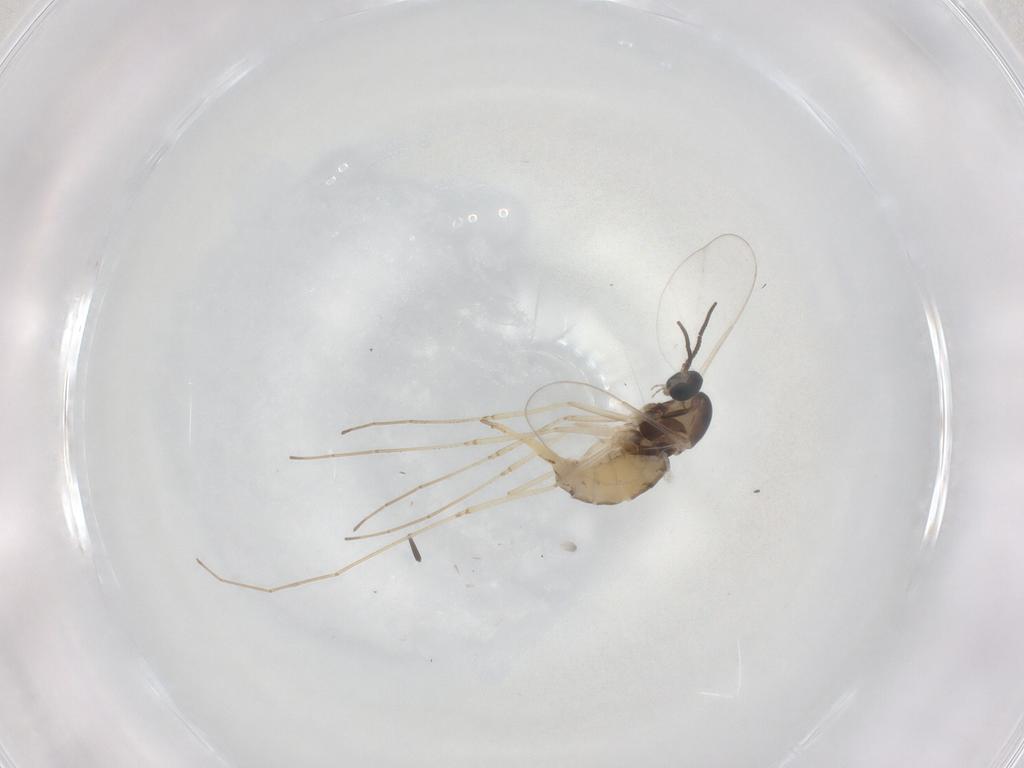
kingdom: Animalia
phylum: Arthropoda
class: Insecta
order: Diptera
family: Cecidomyiidae
